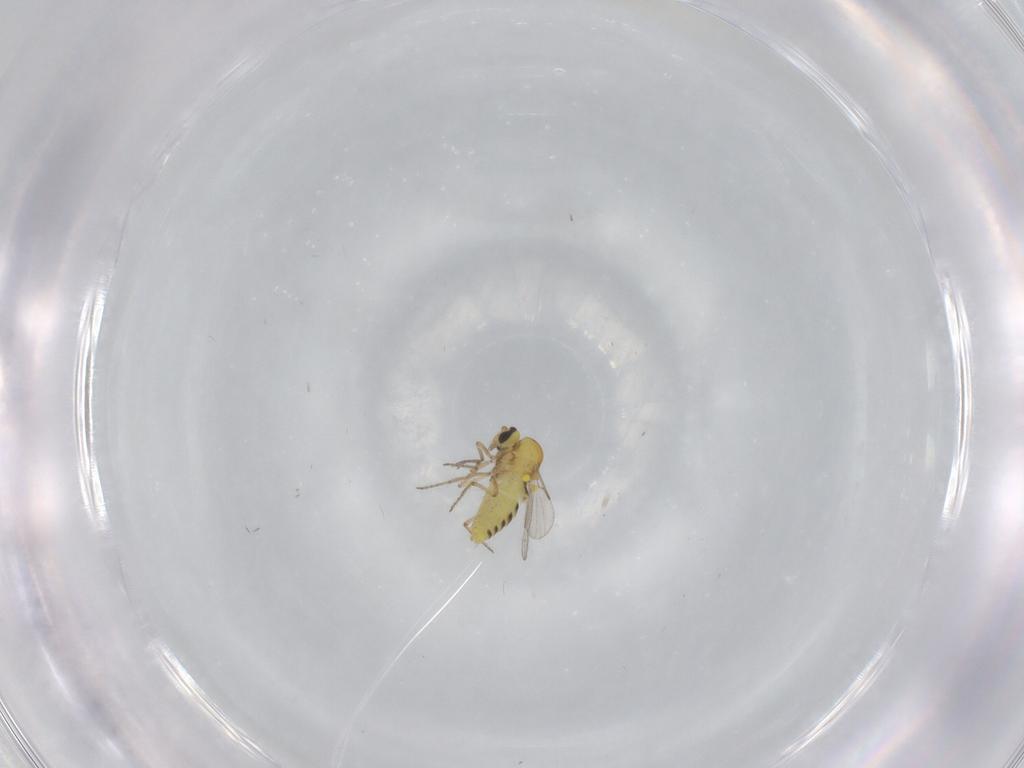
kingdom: Animalia
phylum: Arthropoda
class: Insecta
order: Diptera
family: Ceratopogonidae
